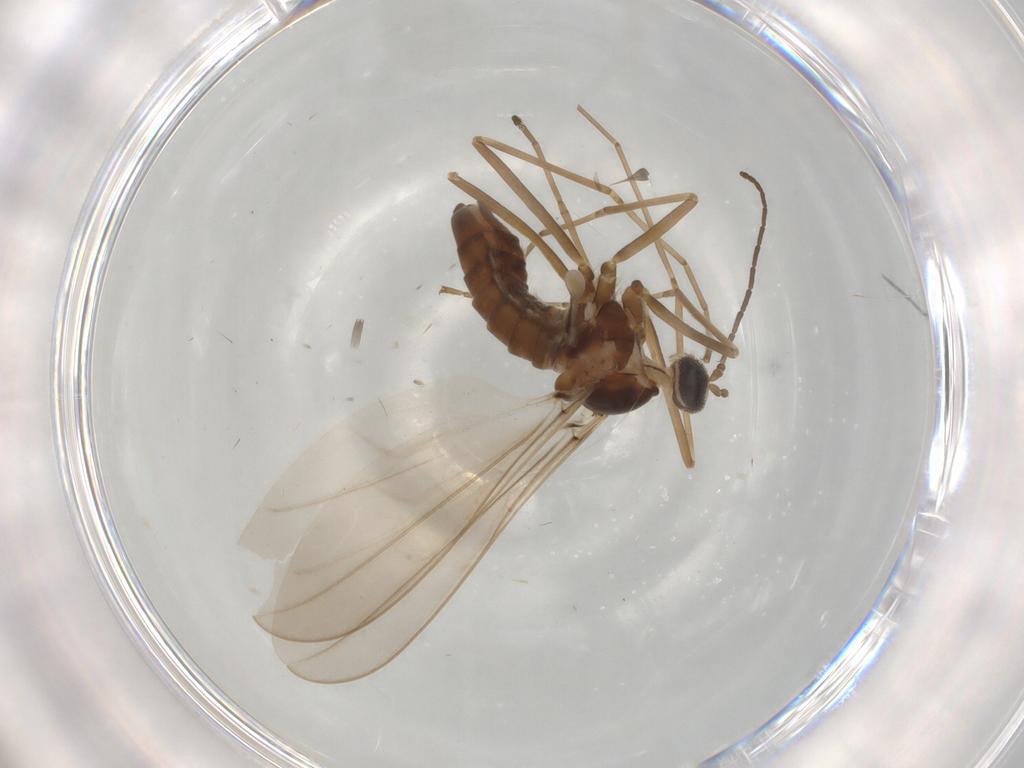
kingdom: Animalia
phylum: Arthropoda
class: Insecta
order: Diptera
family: Cecidomyiidae
